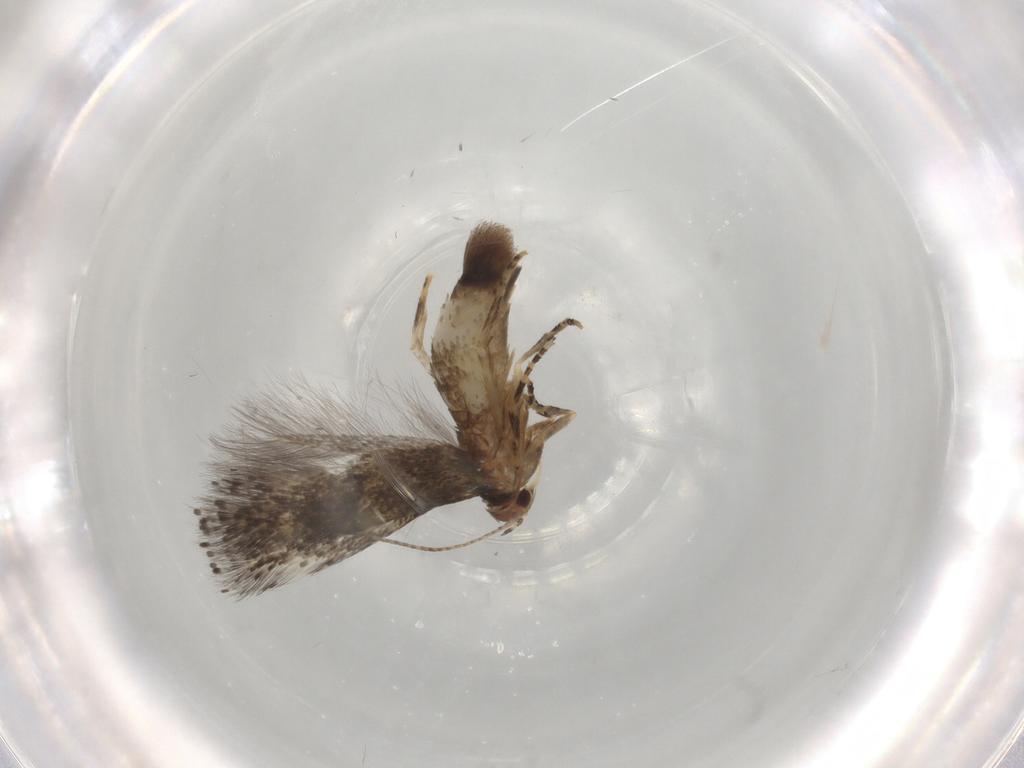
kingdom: Animalia
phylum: Arthropoda
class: Insecta
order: Lepidoptera
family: Elachistidae
